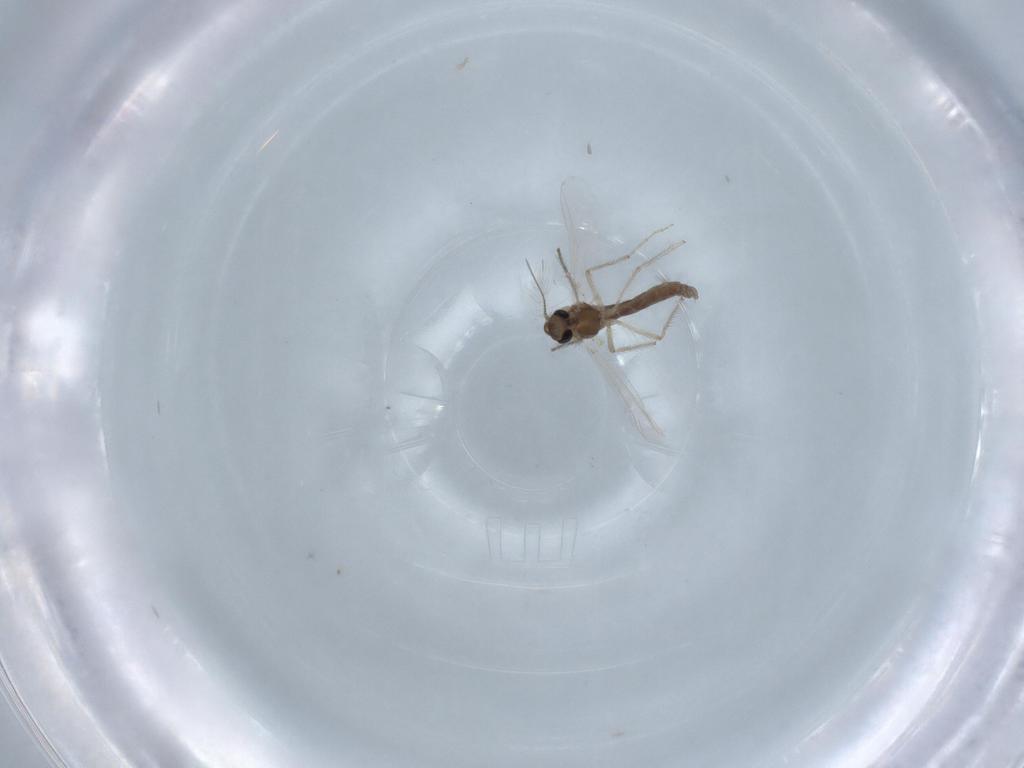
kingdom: Animalia
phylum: Arthropoda
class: Insecta
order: Diptera
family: Chironomidae
